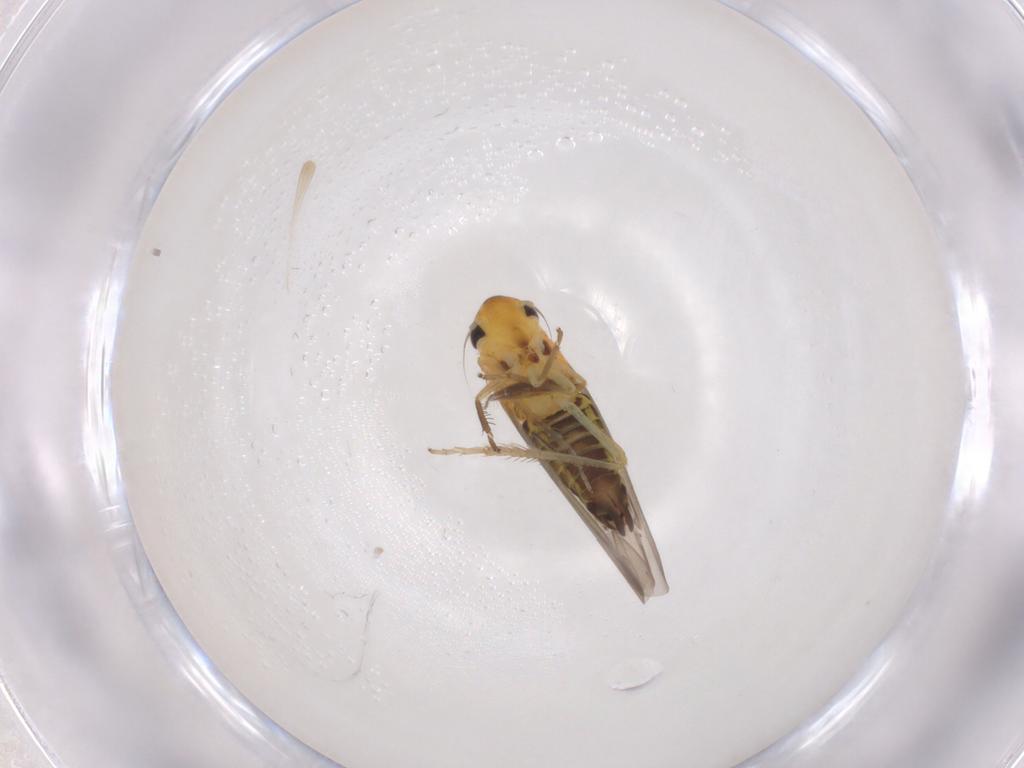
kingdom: Animalia
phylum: Arthropoda
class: Insecta
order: Hemiptera
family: Cicadellidae
